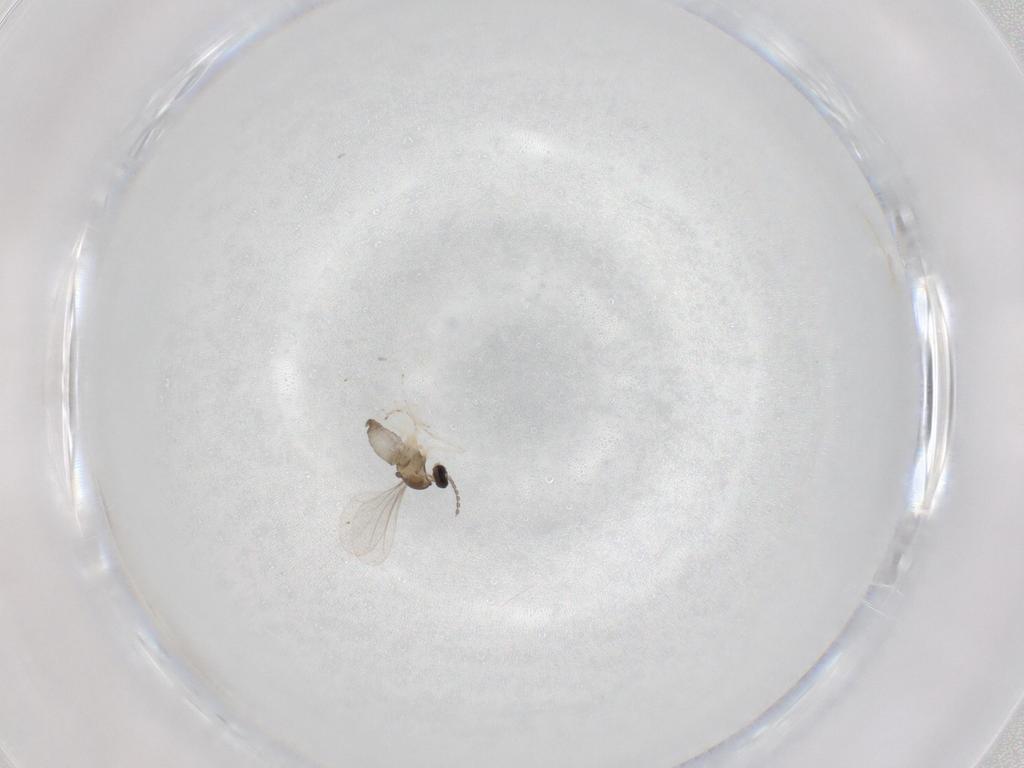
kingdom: Animalia
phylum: Arthropoda
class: Insecta
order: Diptera
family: Cecidomyiidae
